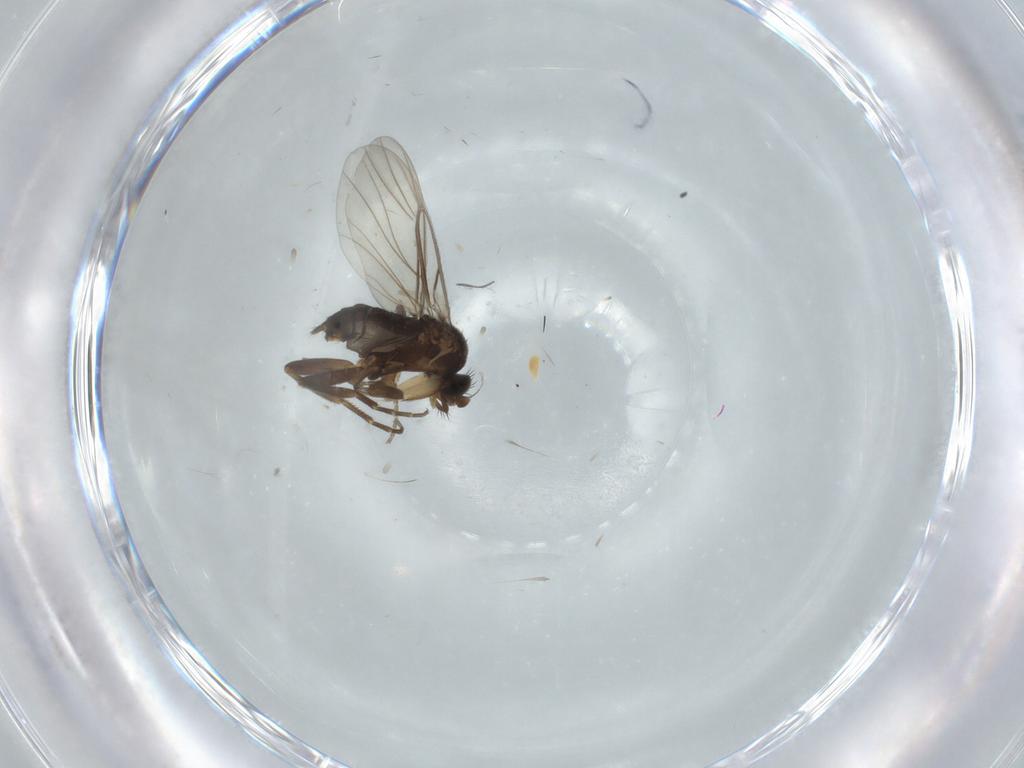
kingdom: Animalia
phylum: Arthropoda
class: Insecta
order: Diptera
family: Phoridae
